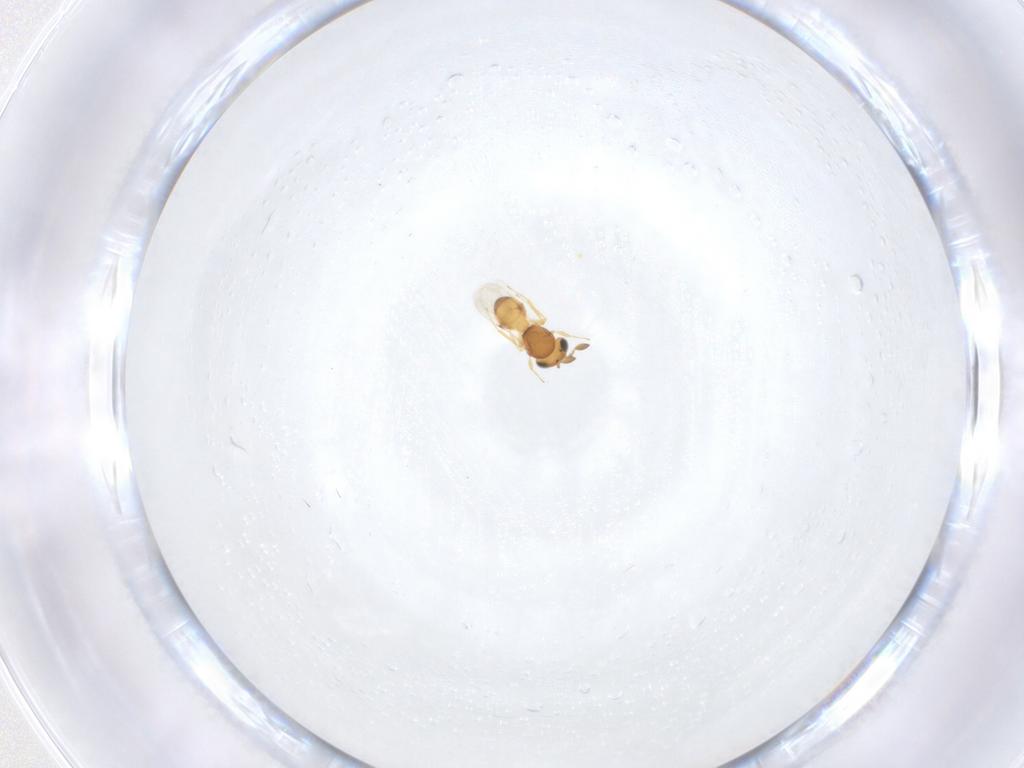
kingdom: Animalia
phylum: Arthropoda
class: Insecta
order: Hymenoptera
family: Scelionidae
